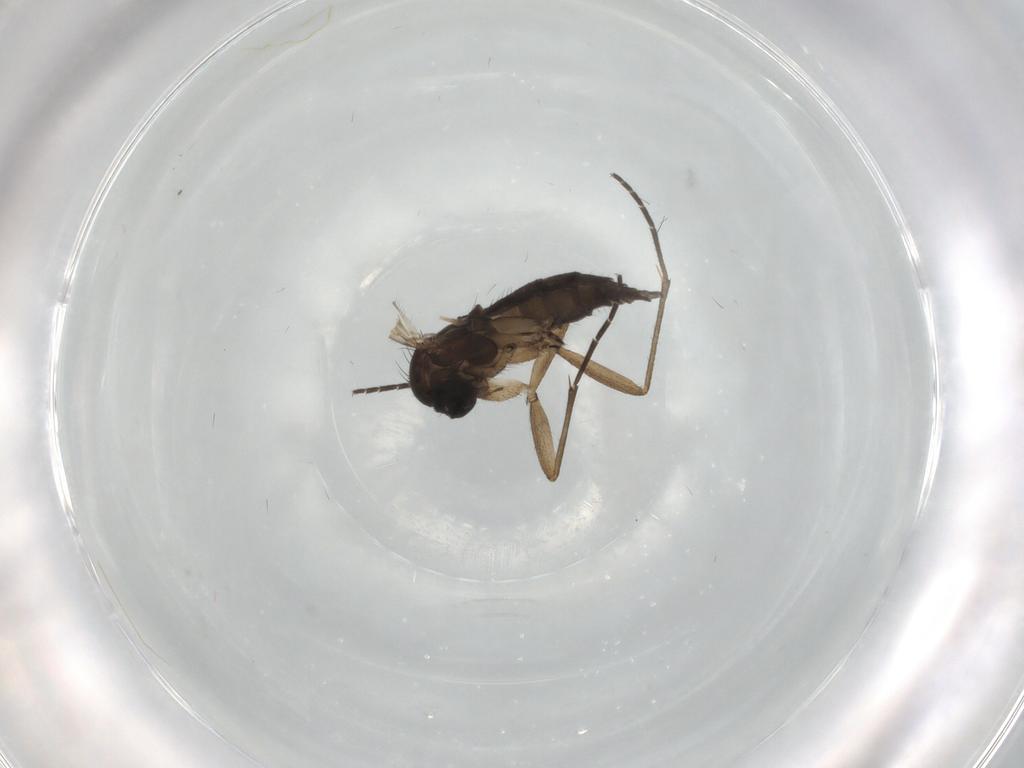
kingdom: Animalia
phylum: Arthropoda
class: Insecta
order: Diptera
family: Sciaridae
